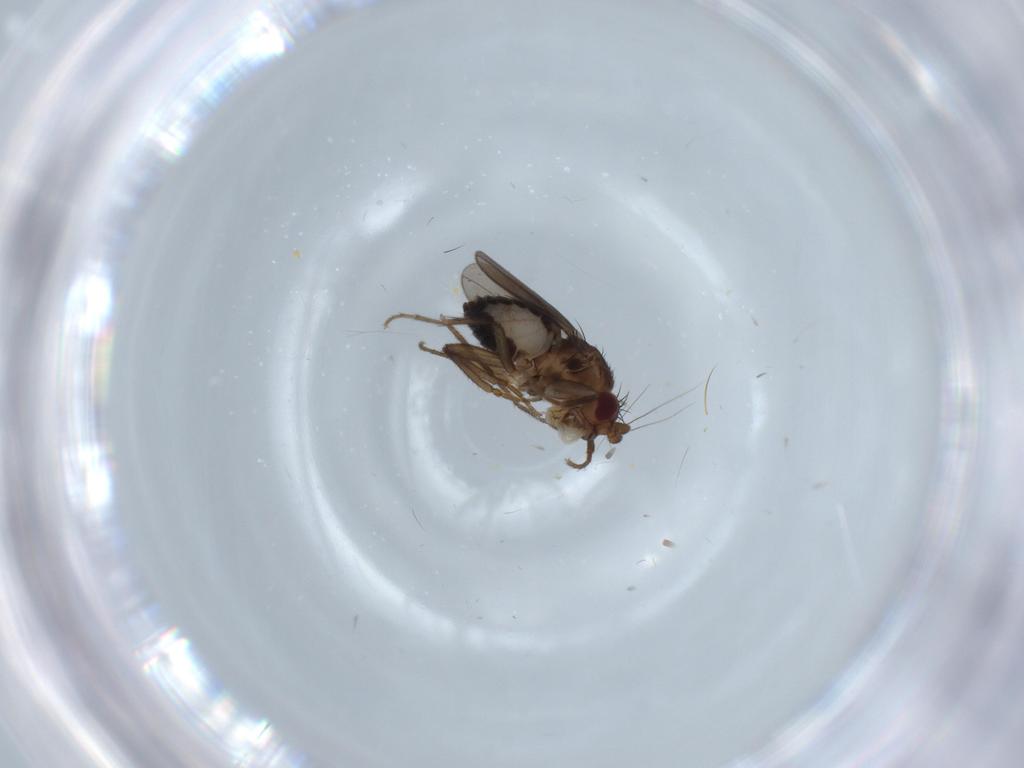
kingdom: Animalia
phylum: Arthropoda
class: Insecta
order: Diptera
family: Sphaeroceridae
